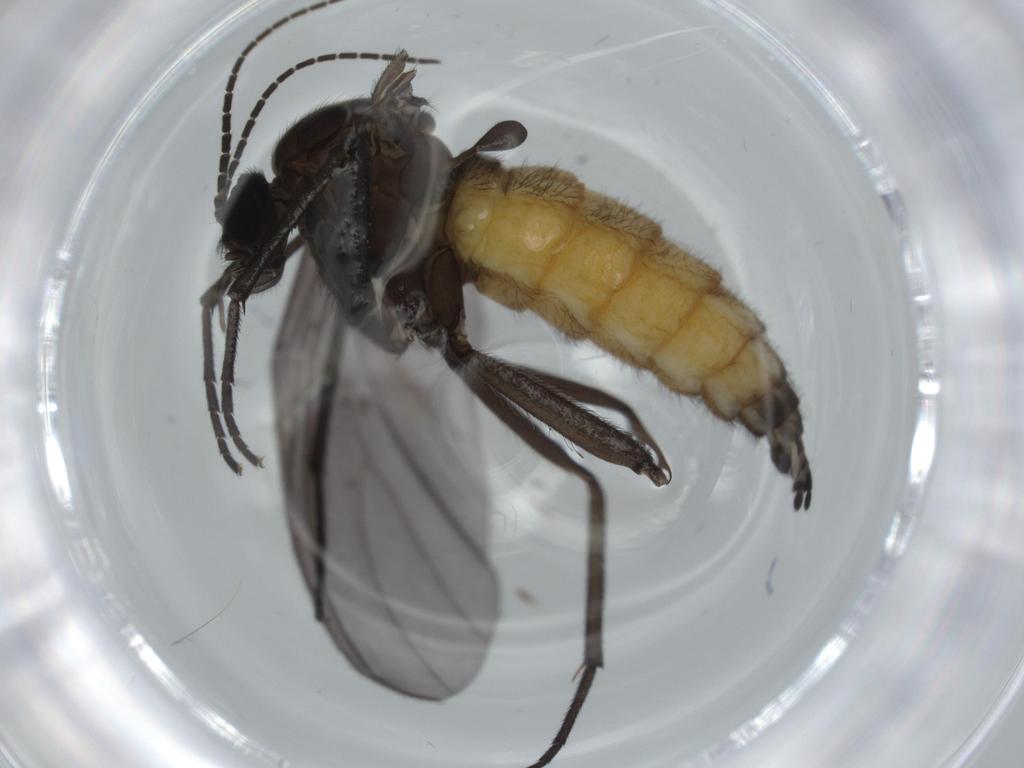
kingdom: Animalia
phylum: Arthropoda
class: Insecta
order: Diptera
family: Cecidomyiidae
